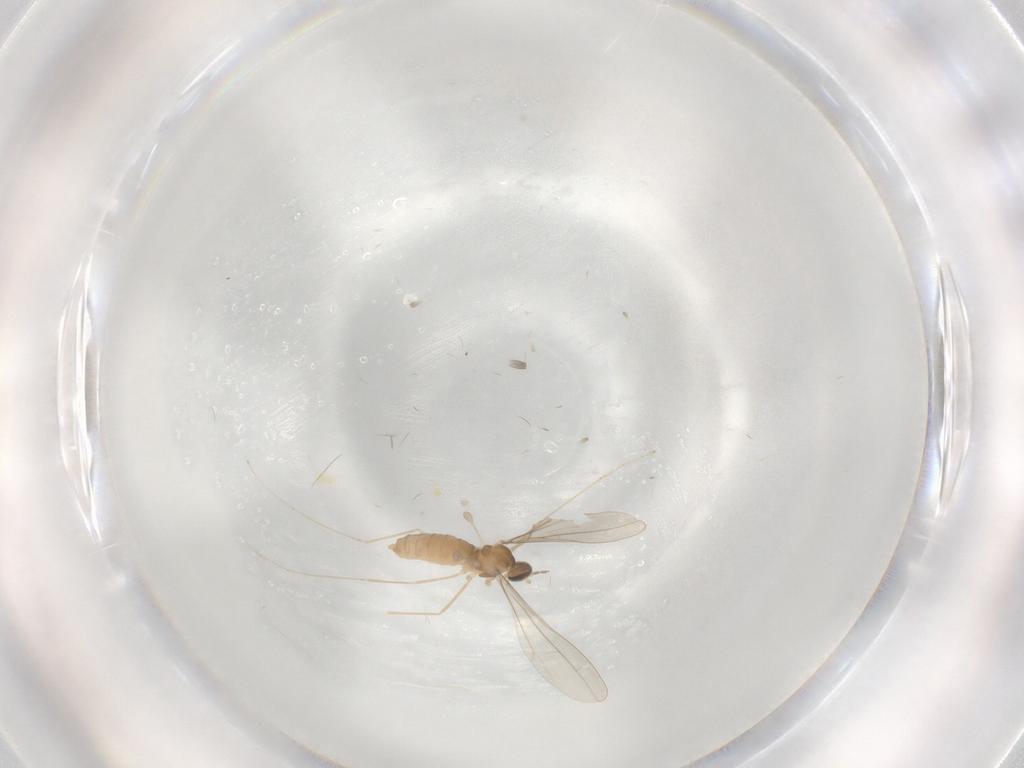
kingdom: Animalia
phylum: Arthropoda
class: Insecta
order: Diptera
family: Cecidomyiidae
